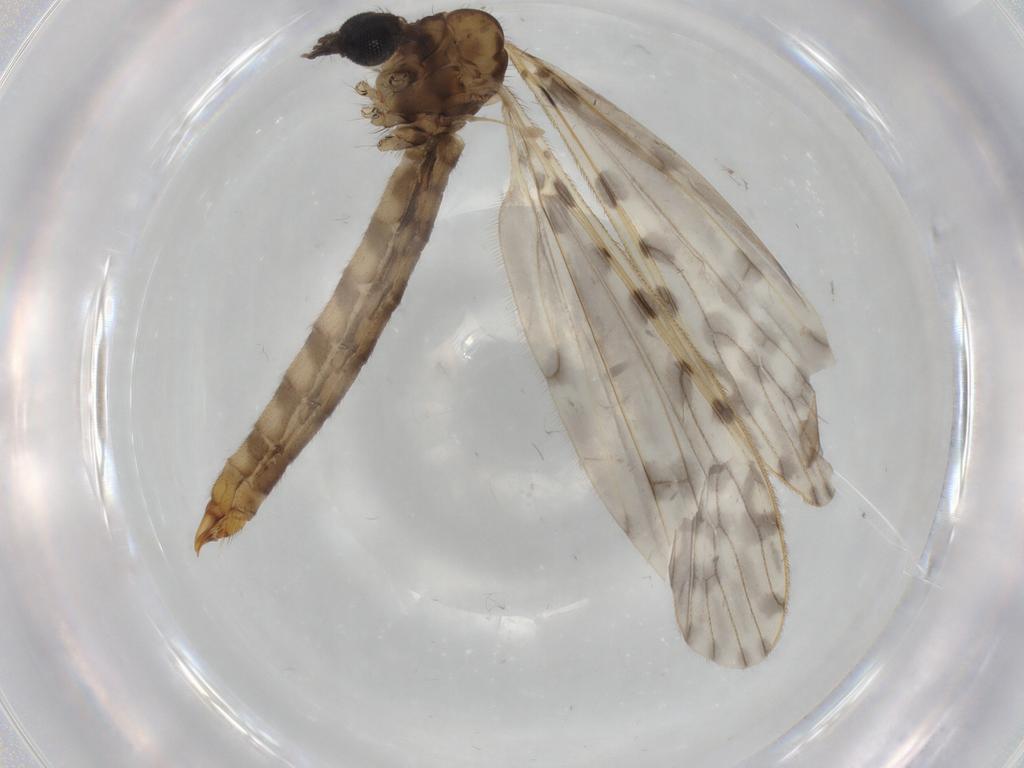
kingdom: Animalia
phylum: Arthropoda
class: Insecta
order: Diptera
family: Limoniidae
